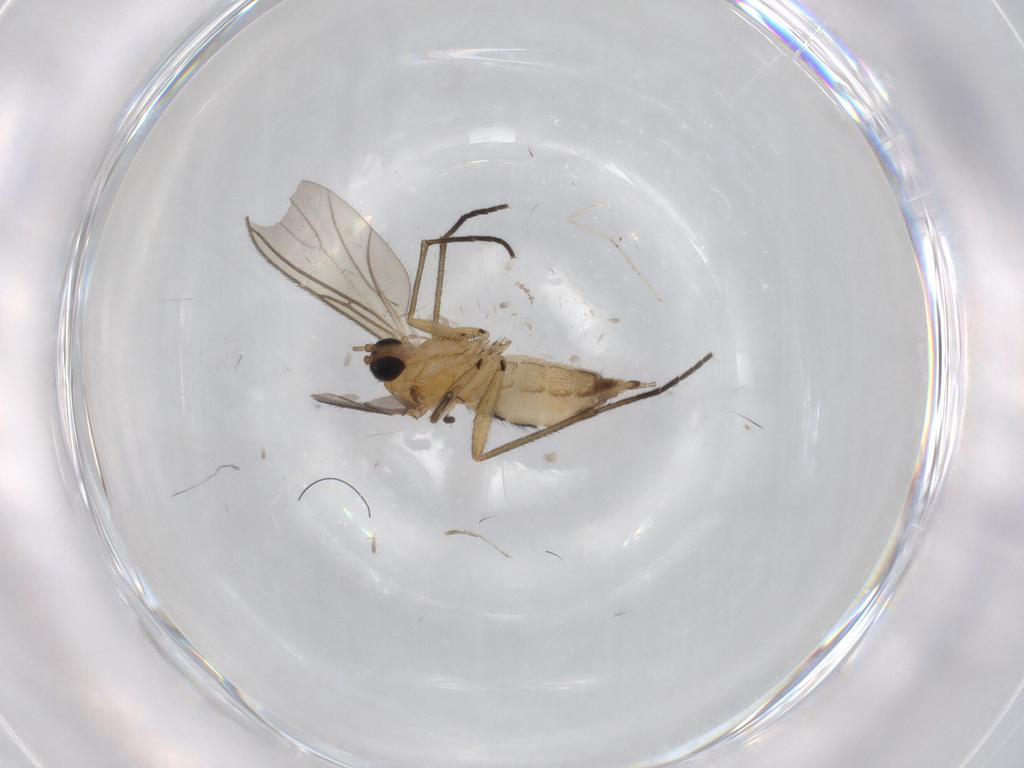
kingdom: Animalia
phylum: Arthropoda
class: Insecta
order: Diptera
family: Sciaridae
